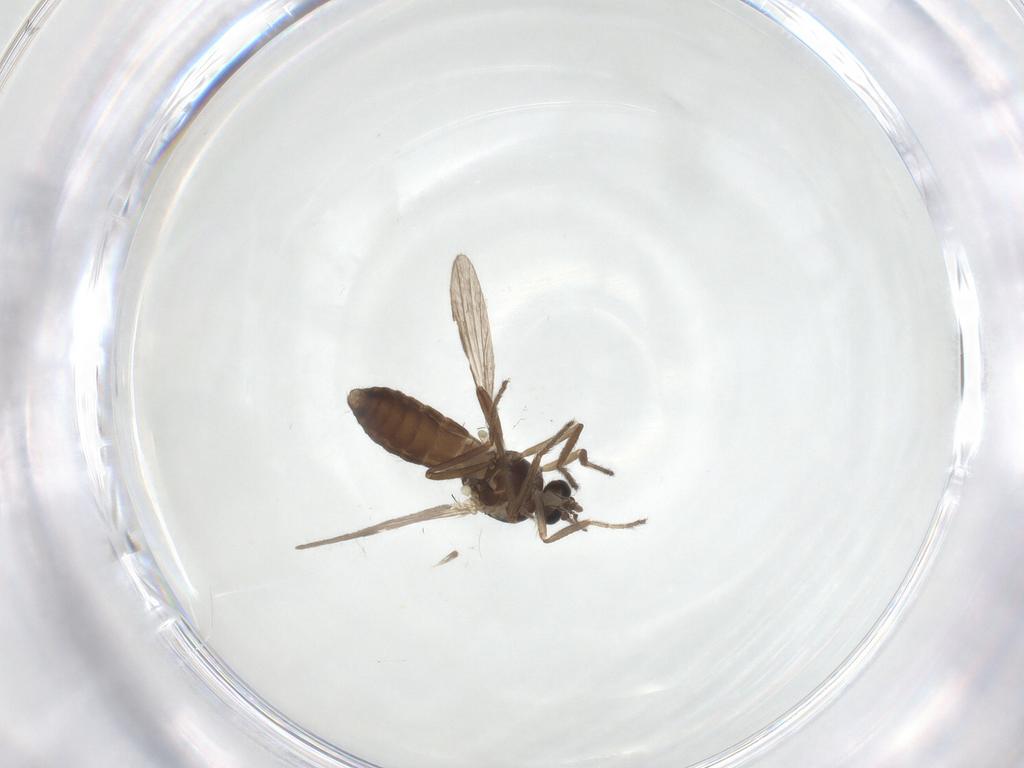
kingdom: Animalia
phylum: Arthropoda
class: Insecta
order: Diptera
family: Ceratopogonidae
